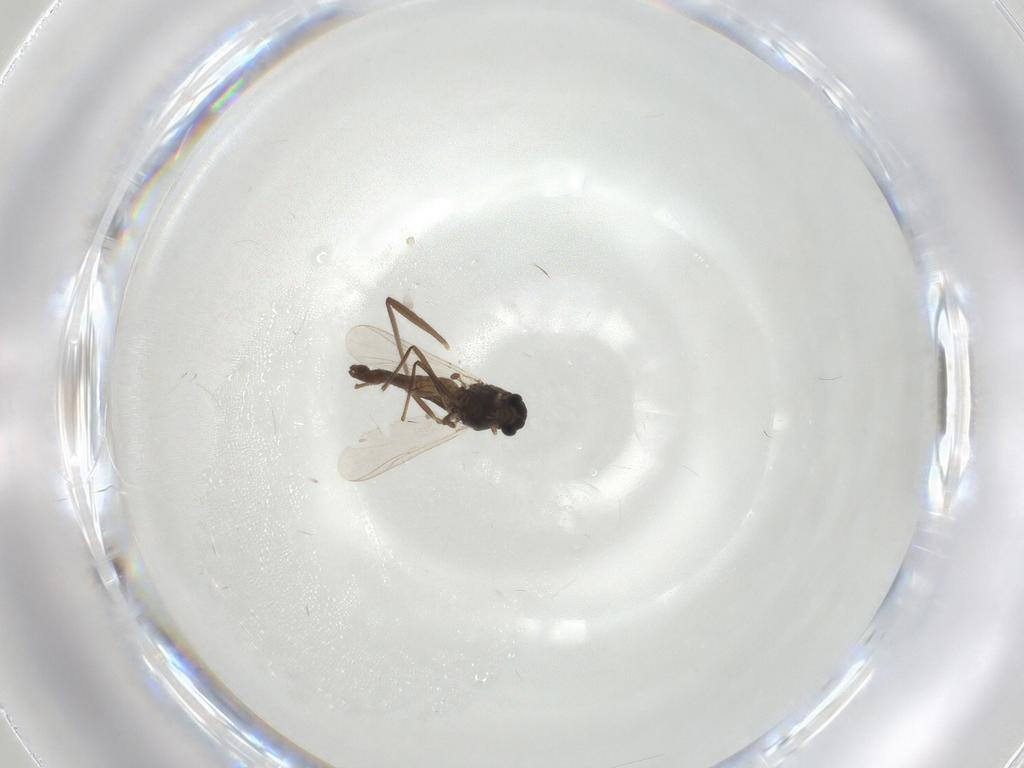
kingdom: Animalia
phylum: Arthropoda
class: Insecta
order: Diptera
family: Chironomidae
